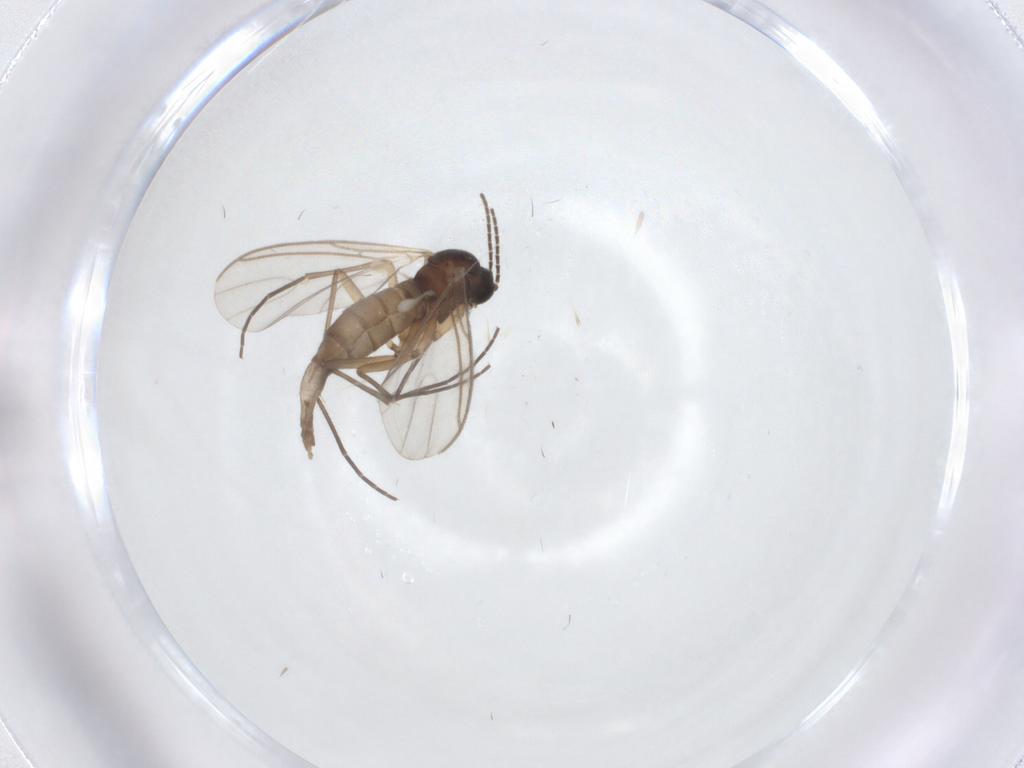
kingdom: Animalia
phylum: Arthropoda
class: Insecta
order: Diptera
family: Sciaridae
